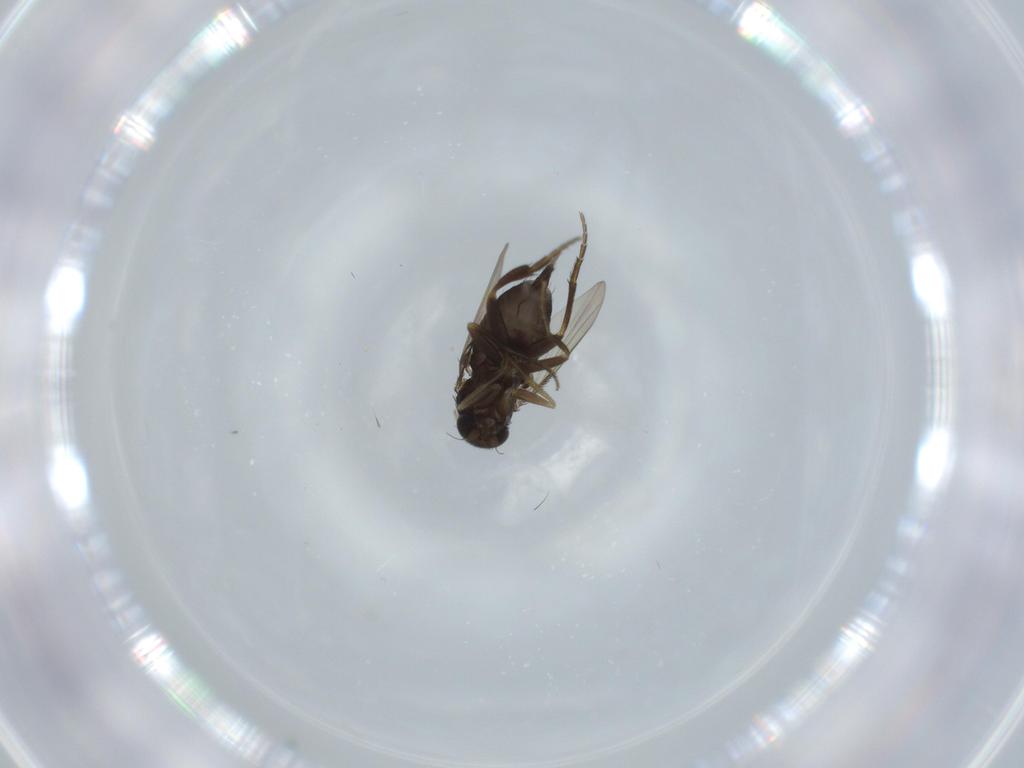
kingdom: Animalia
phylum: Arthropoda
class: Insecta
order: Diptera
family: Phoridae
